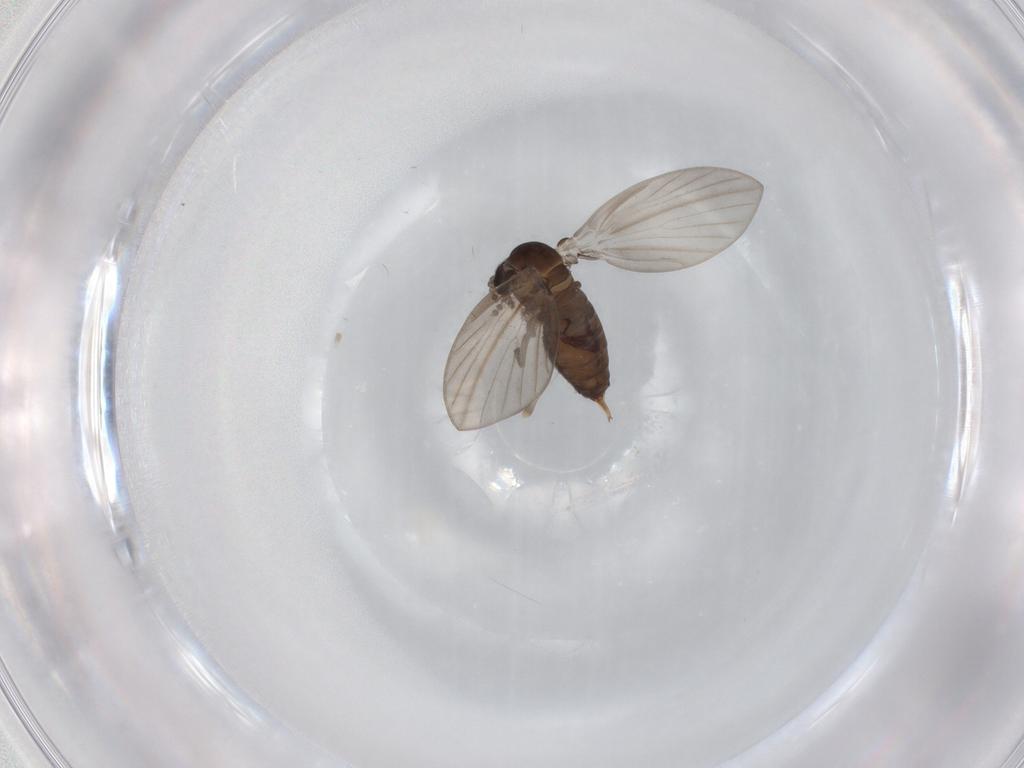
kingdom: Animalia
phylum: Arthropoda
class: Insecta
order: Diptera
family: Psychodidae
